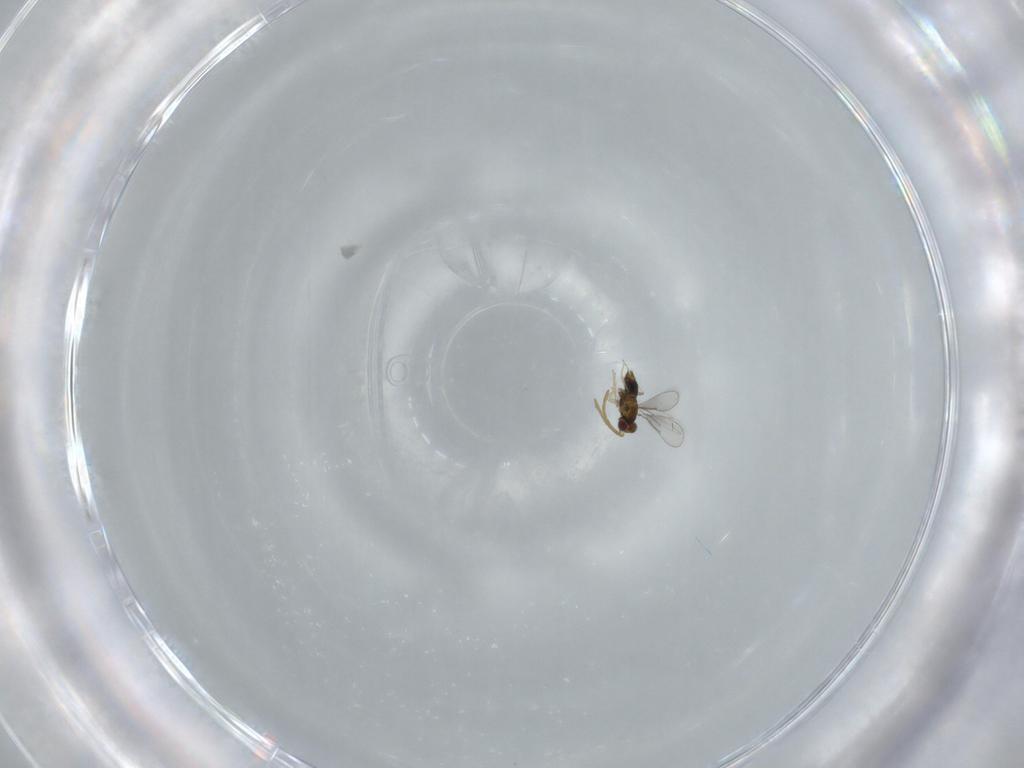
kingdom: Animalia
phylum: Arthropoda
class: Insecta
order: Hymenoptera
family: Aphelinidae
